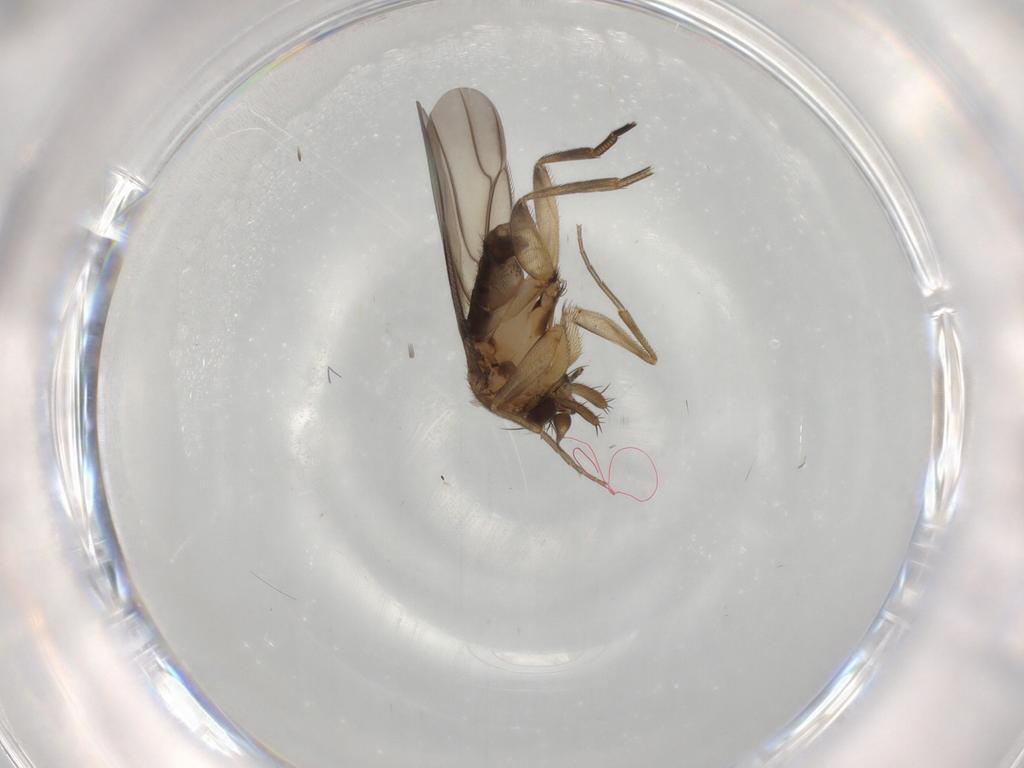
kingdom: Animalia
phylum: Arthropoda
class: Insecta
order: Diptera
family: Phoridae
